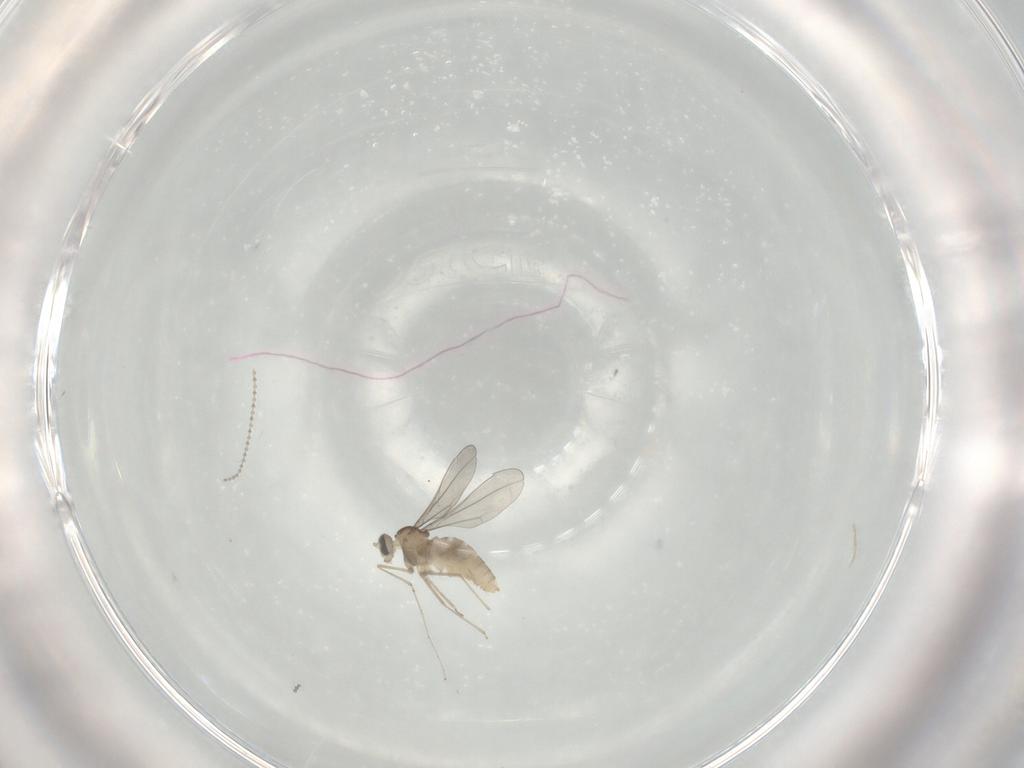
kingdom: Animalia
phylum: Arthropoda
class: Insecta
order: Diptera
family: Cecidomyiidae
